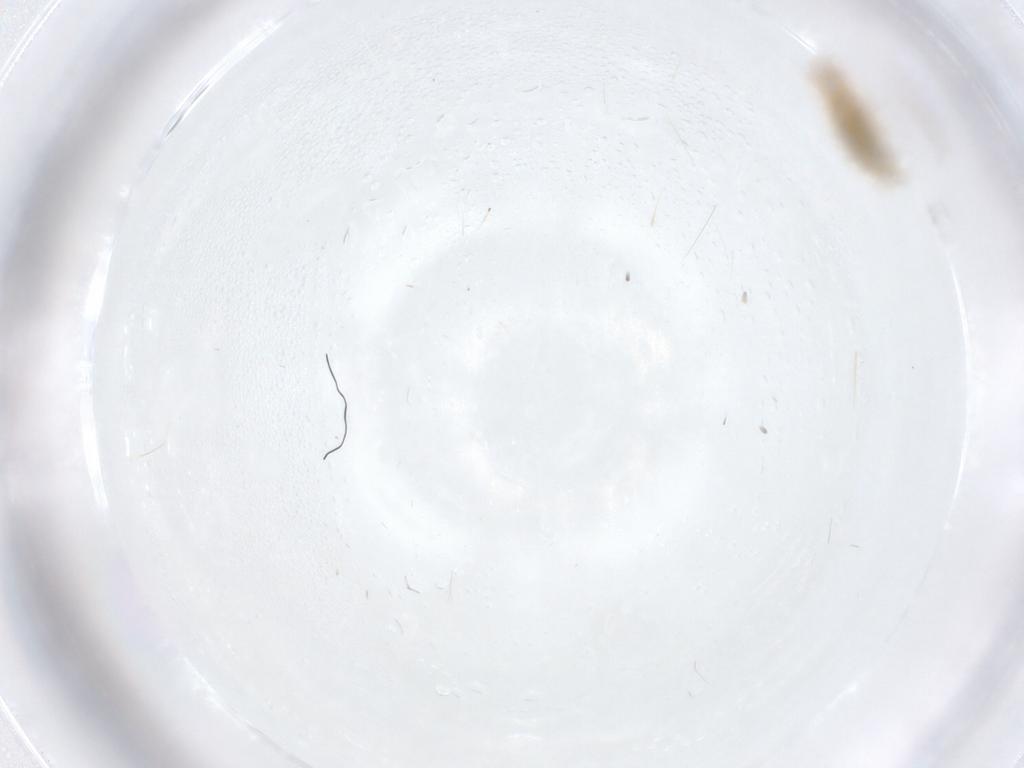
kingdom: Animalia
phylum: Arthropoda
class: Collembola
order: Entomobryomorpha
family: Entomobryidae
